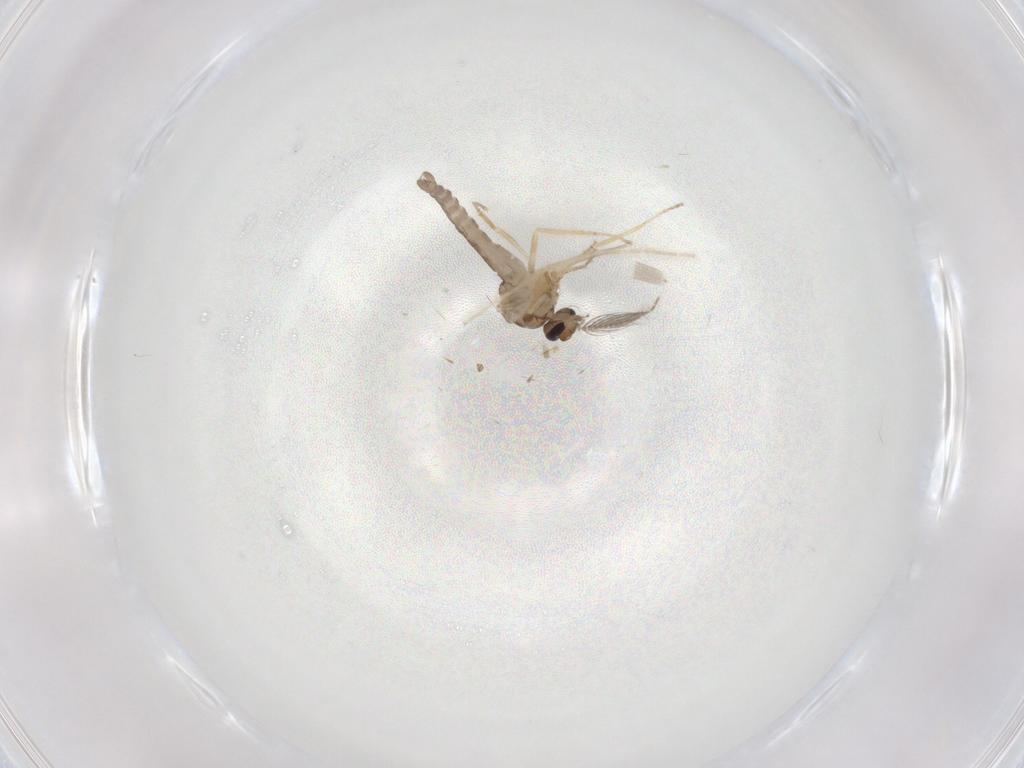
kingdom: Animalia
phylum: Arthropoda
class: Insecta
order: Diptera
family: Ceratopogonidae
